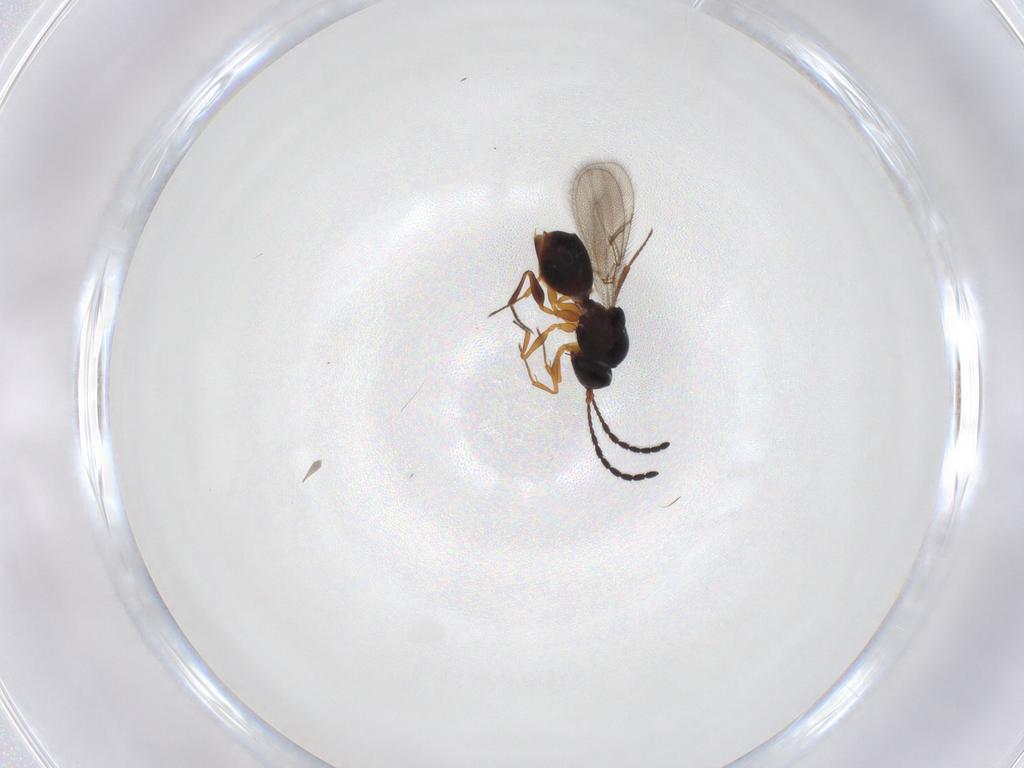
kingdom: Animalia
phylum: Arthropoda
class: Insecta
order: Hymenoptera
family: Figitidae
